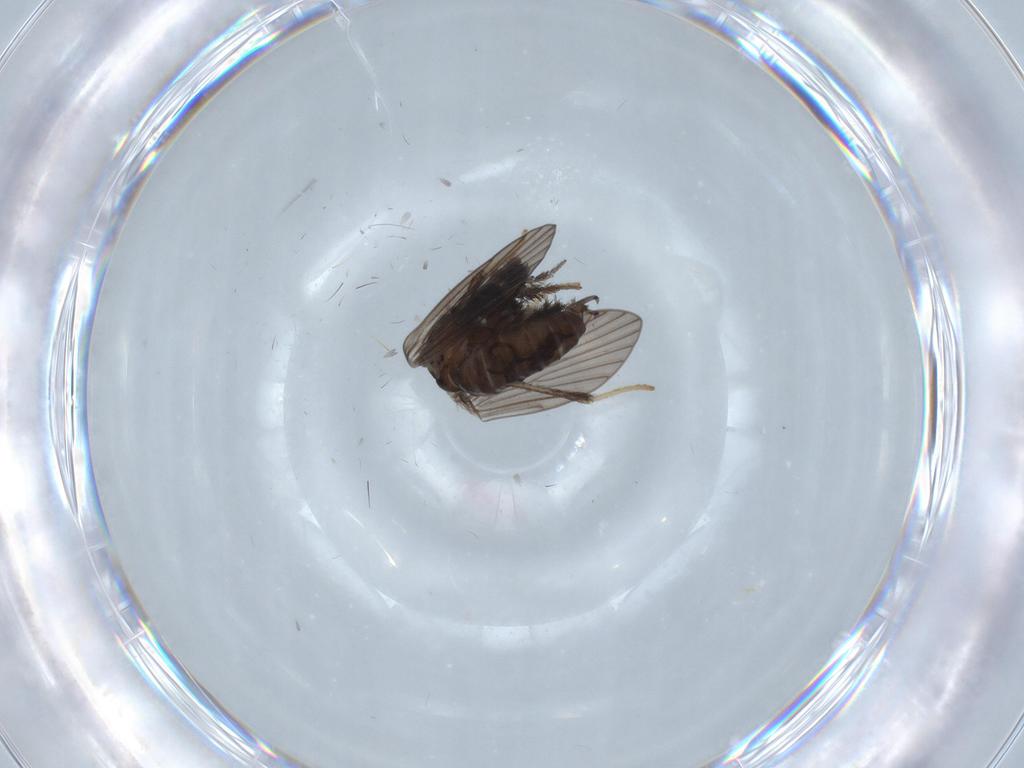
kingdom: Animalia
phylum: Arthropoda
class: Insecta
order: Diptera
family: Psychodidae
